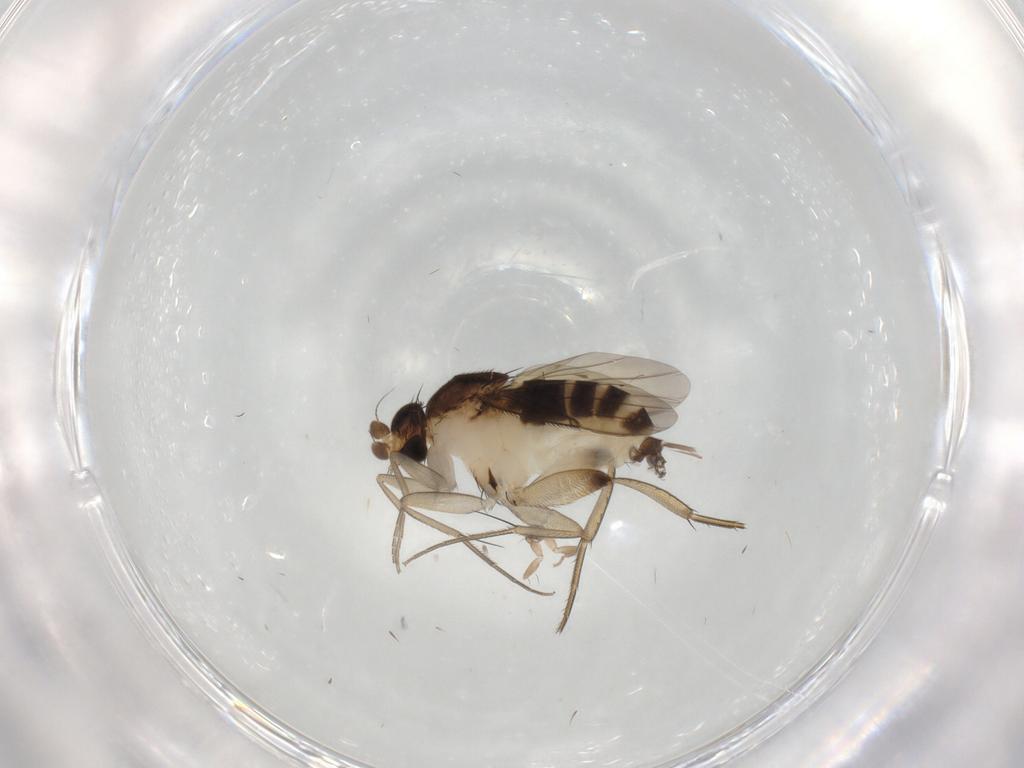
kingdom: Animalia
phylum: Arthropoda
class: Insecta
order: Diptera
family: Phoridae
